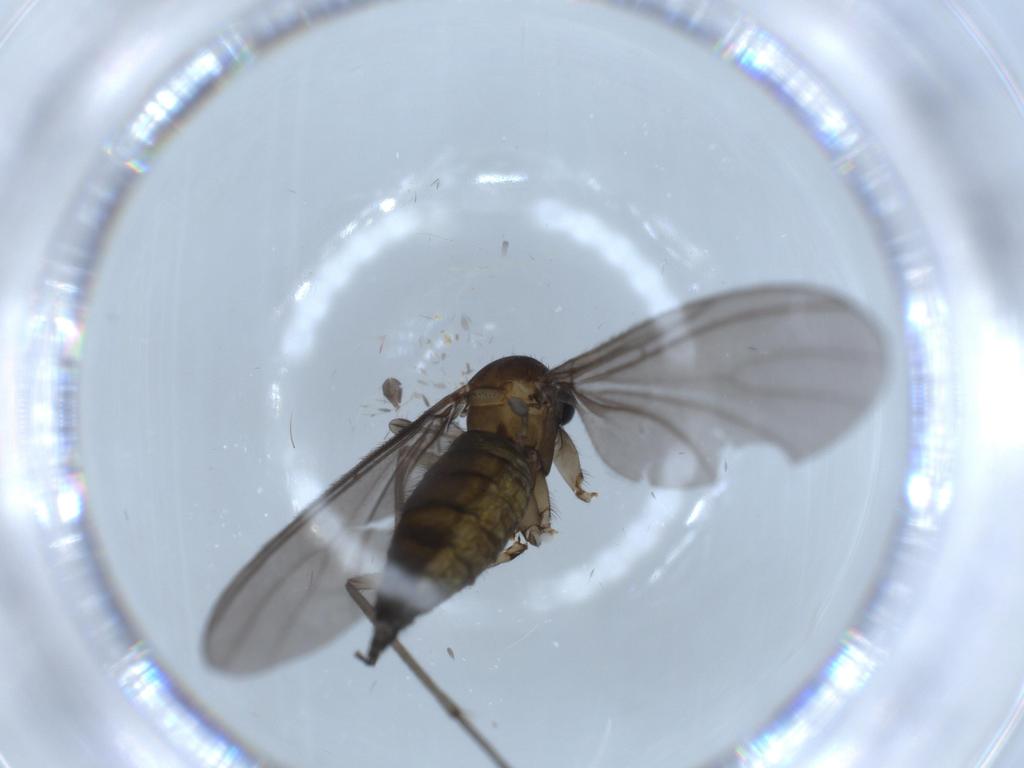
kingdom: Animalia
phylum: Arthropoda
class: Insecta
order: Diptera
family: Sciaridae
